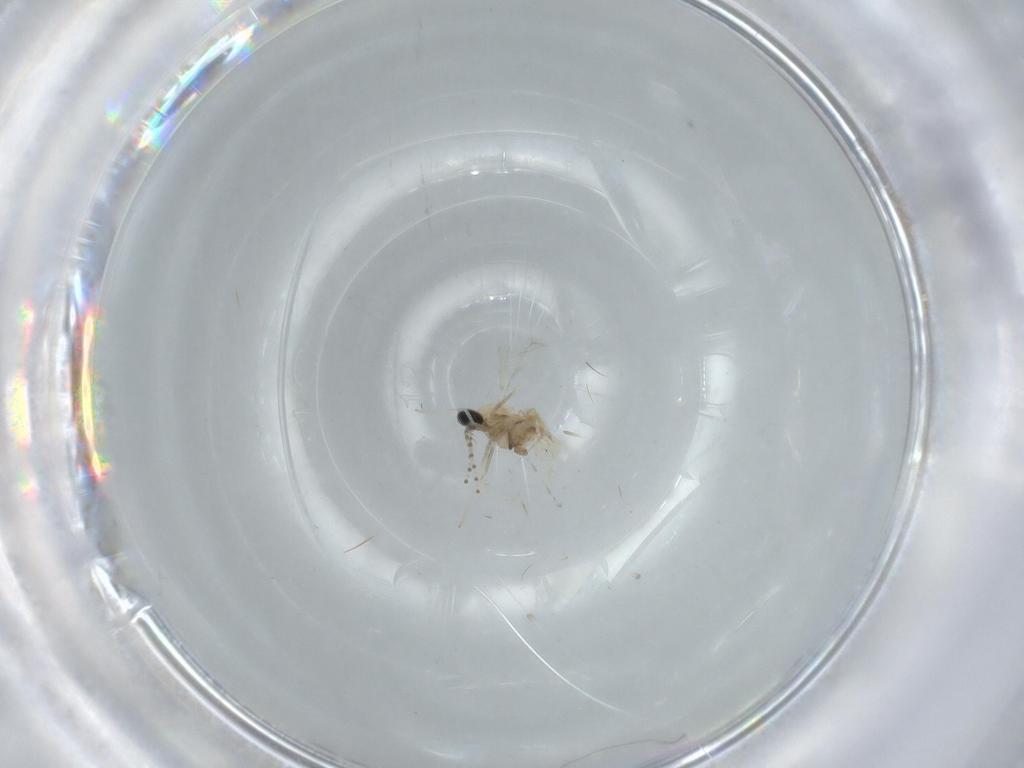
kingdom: Animalia
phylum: Arthropoda
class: Insecta
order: Diptera
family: Cecidomyiidae
